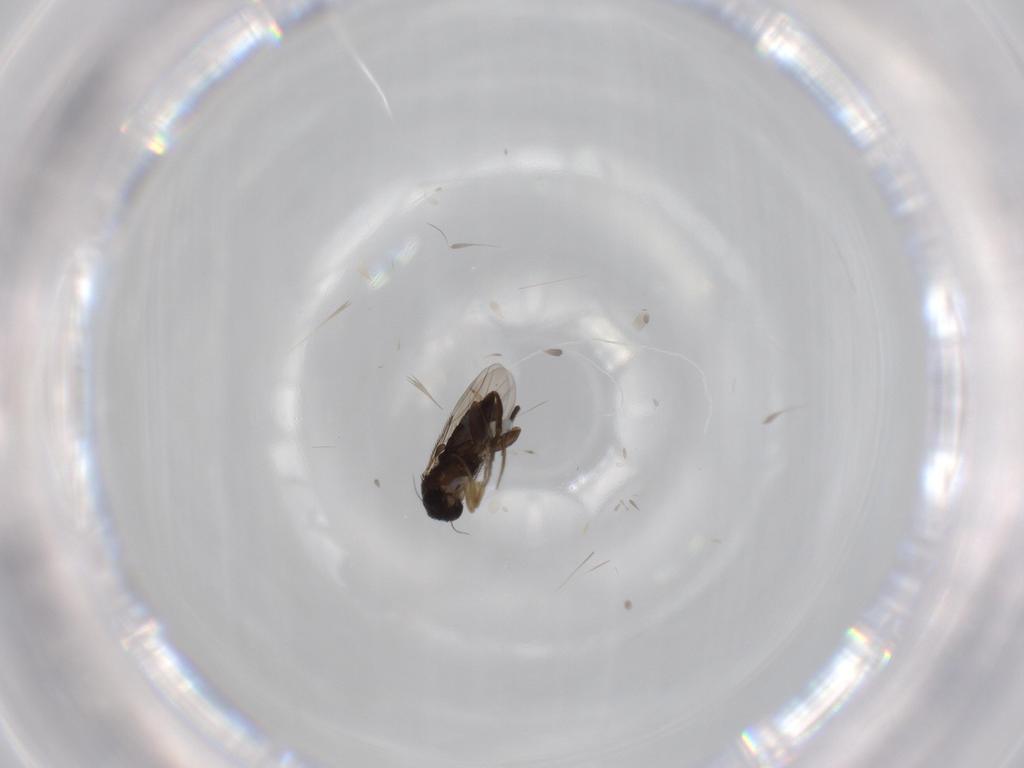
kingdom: Animalia
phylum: Arthropoda
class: Insecta
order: Diptera
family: Phoridae
